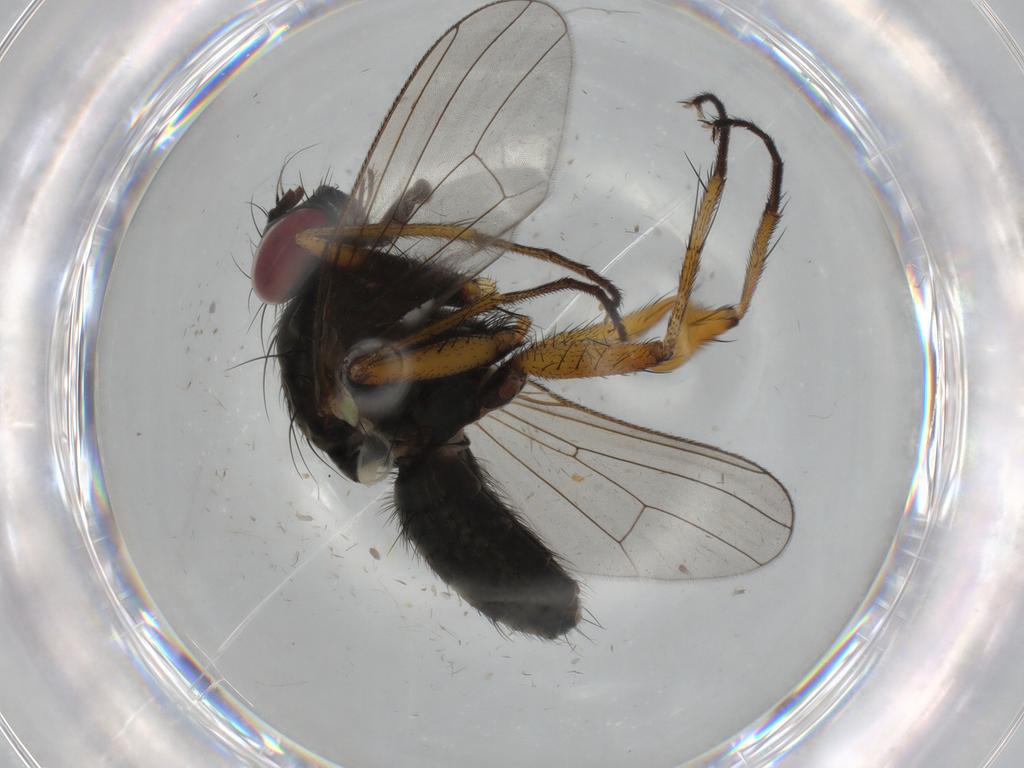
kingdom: Animalia
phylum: Arthropoda
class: Insecta
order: Diptera
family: Muscidae
